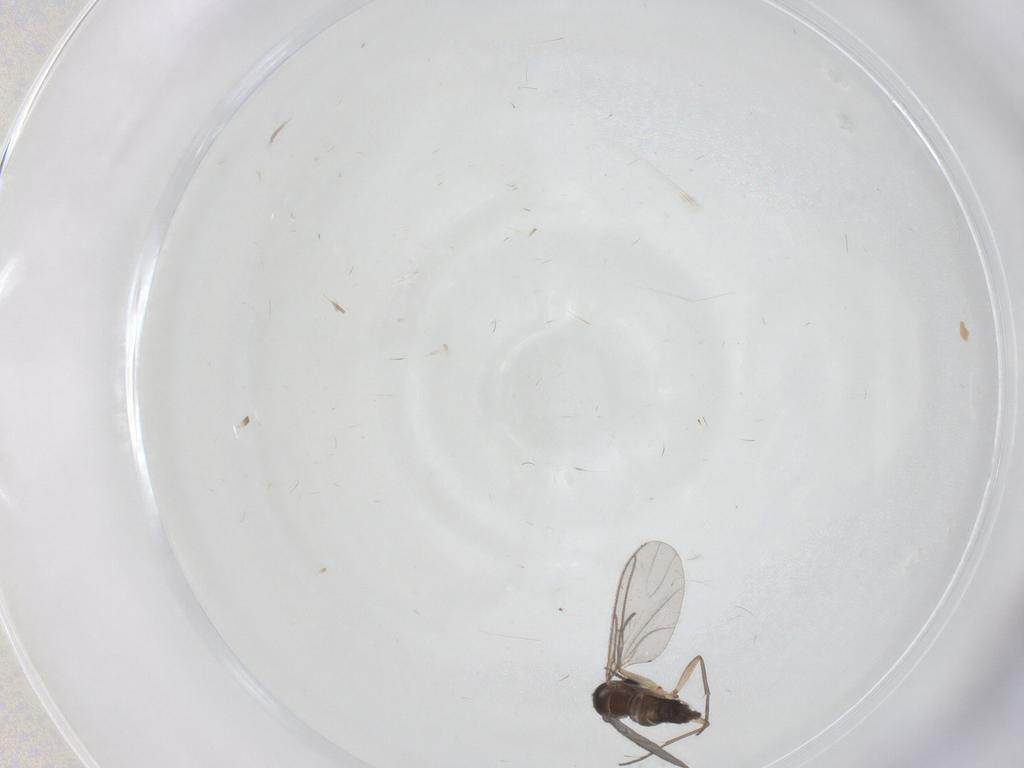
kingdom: Animalia
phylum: Arthropoda
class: Insecta
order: Diptera
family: Sciaridae
